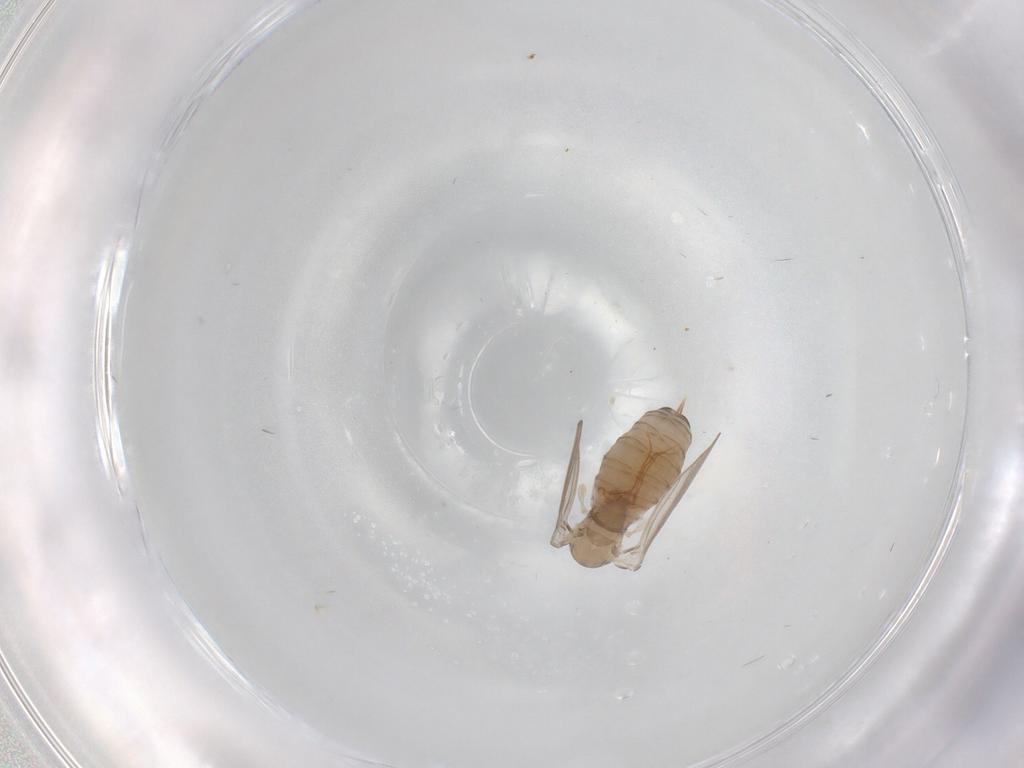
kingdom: Animalia
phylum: Arthropoda
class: Insecta
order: Diptera
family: Psychodidae
